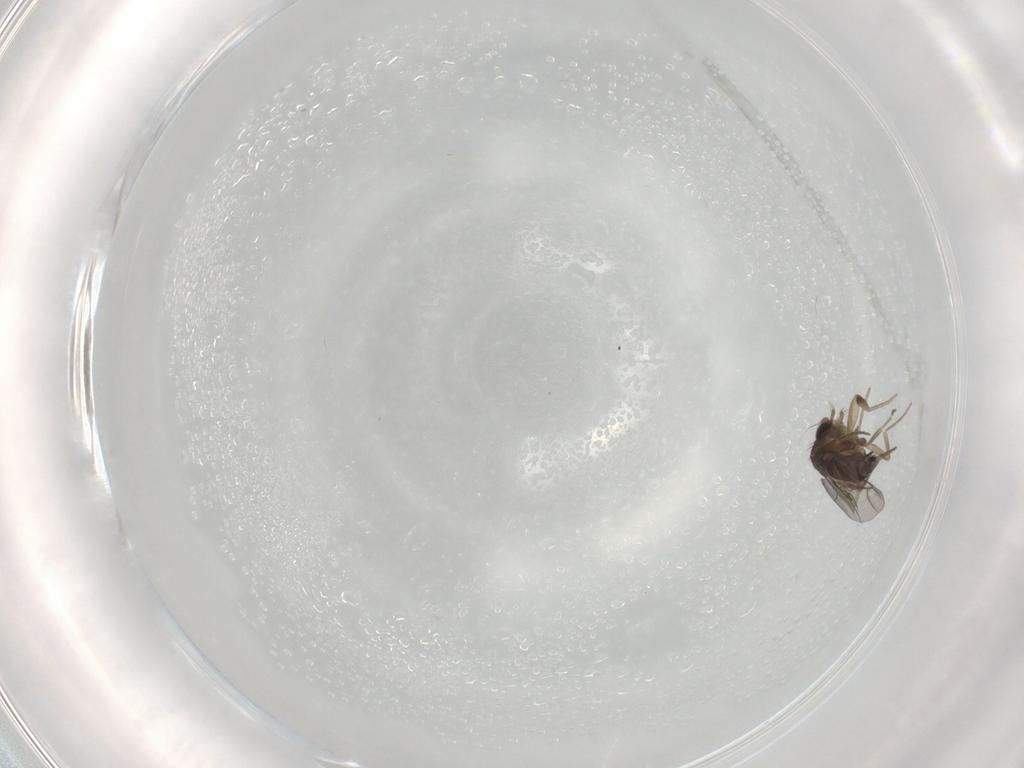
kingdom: Animalia
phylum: Arthropoda
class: Insecta
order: Diptera
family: Phoridae
